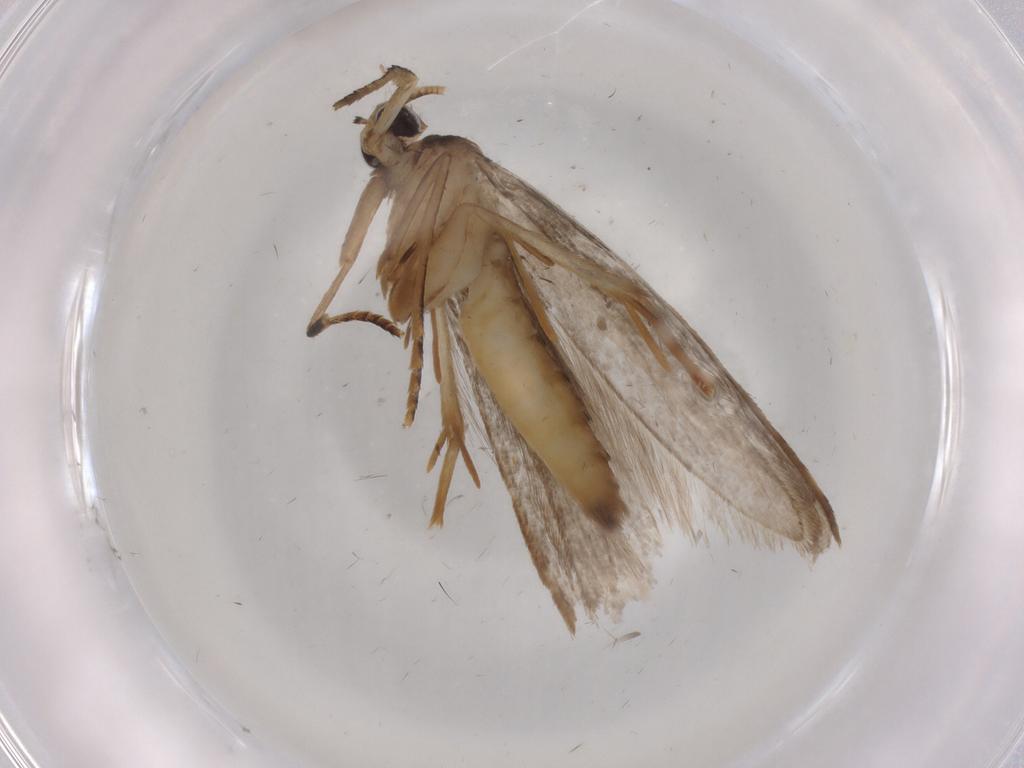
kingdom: Animalia
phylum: Arthropoda
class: Insecta
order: Lepidoptera
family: Tineidae
